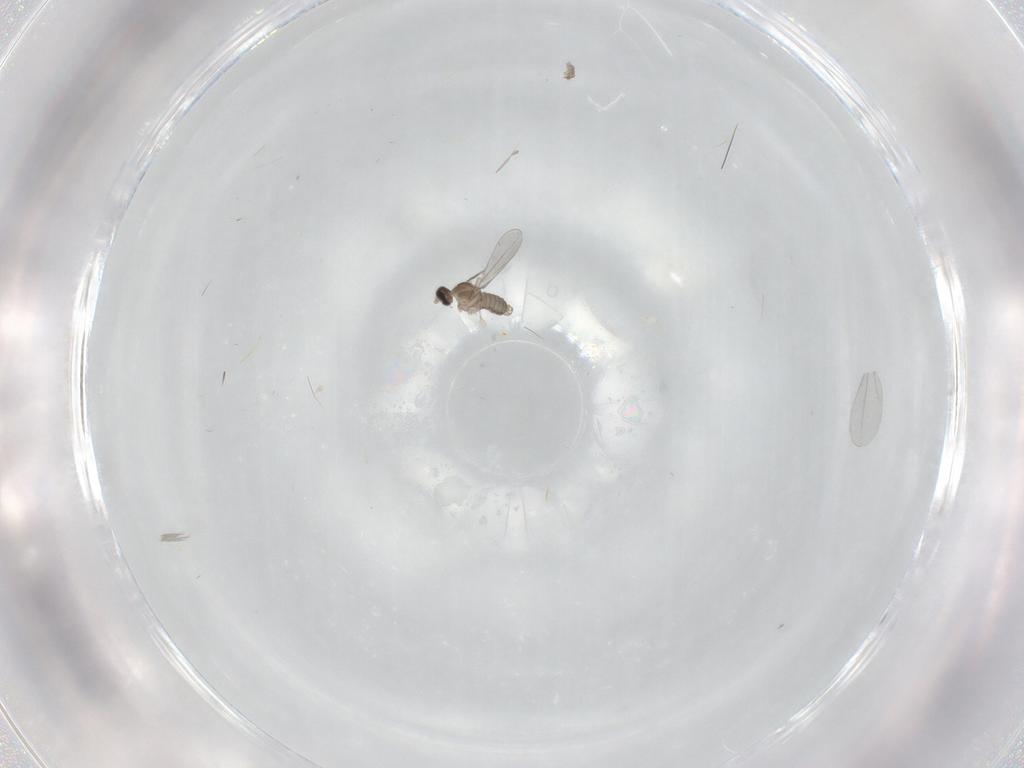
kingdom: Animalia
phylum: Arthropoda
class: Insecta
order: Diptera
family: Ceratopogonidae
